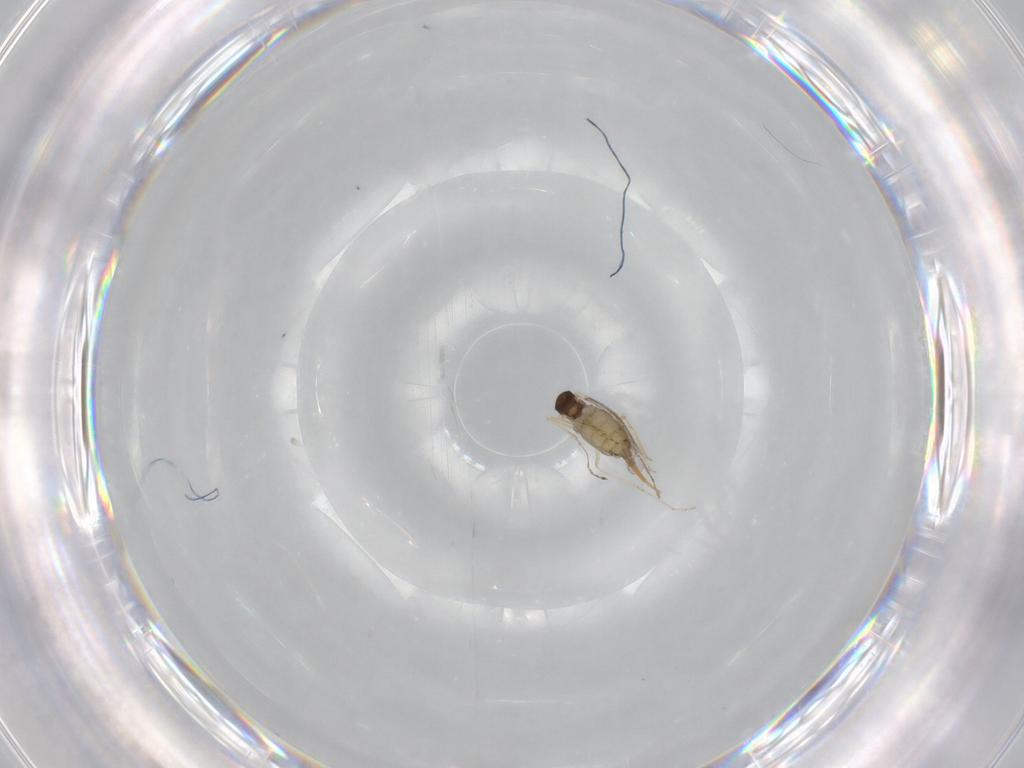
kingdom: Animalia
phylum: Arthropoda
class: Insecta
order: Diptera
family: Cecidomyiidae
